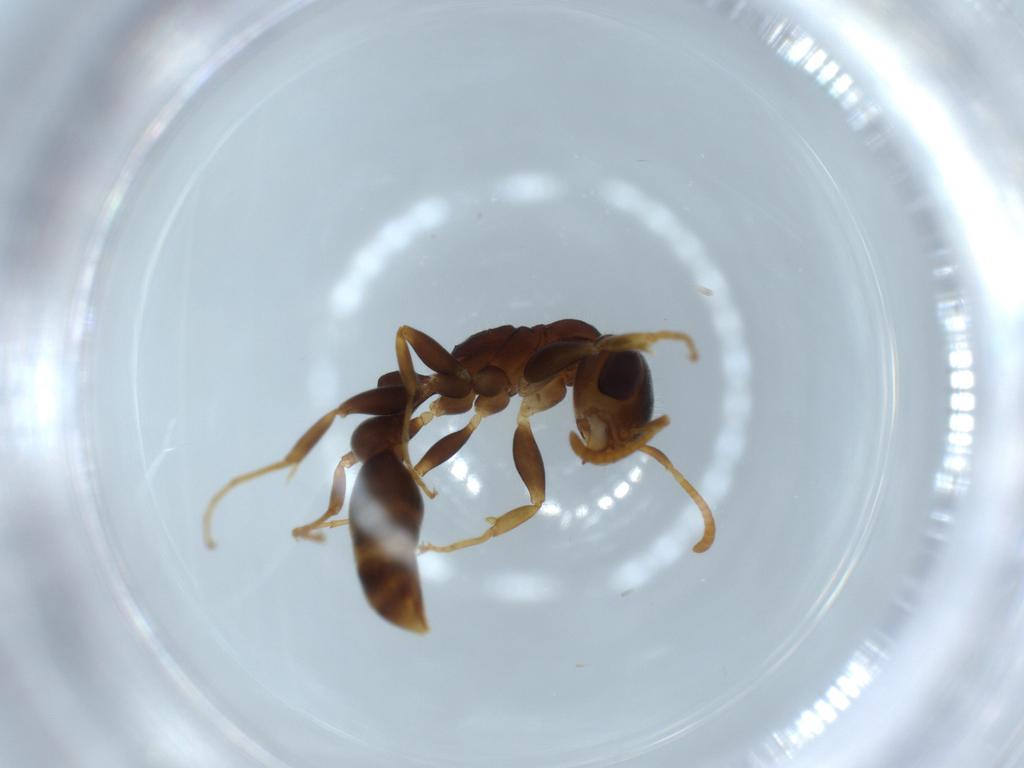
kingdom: Animalia
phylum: Arthropoda
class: Insecta
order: Hymenoptera
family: Formicidae
